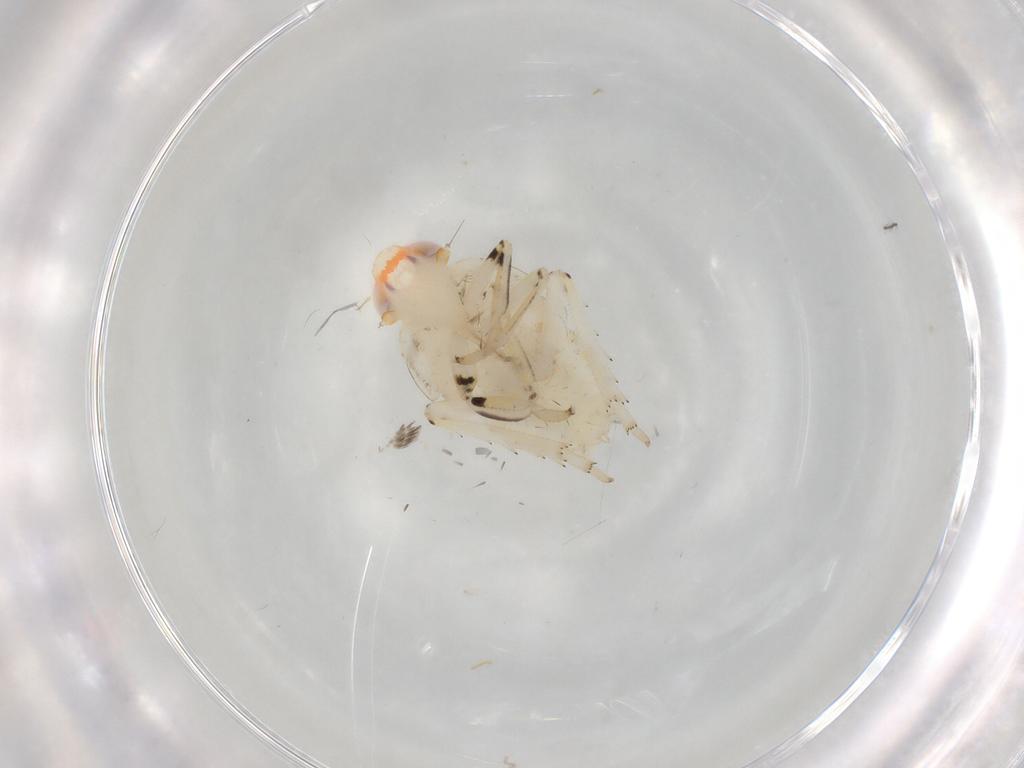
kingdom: Animalia
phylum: Arthropoda
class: Insecta
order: Hemiptera
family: Issidae
